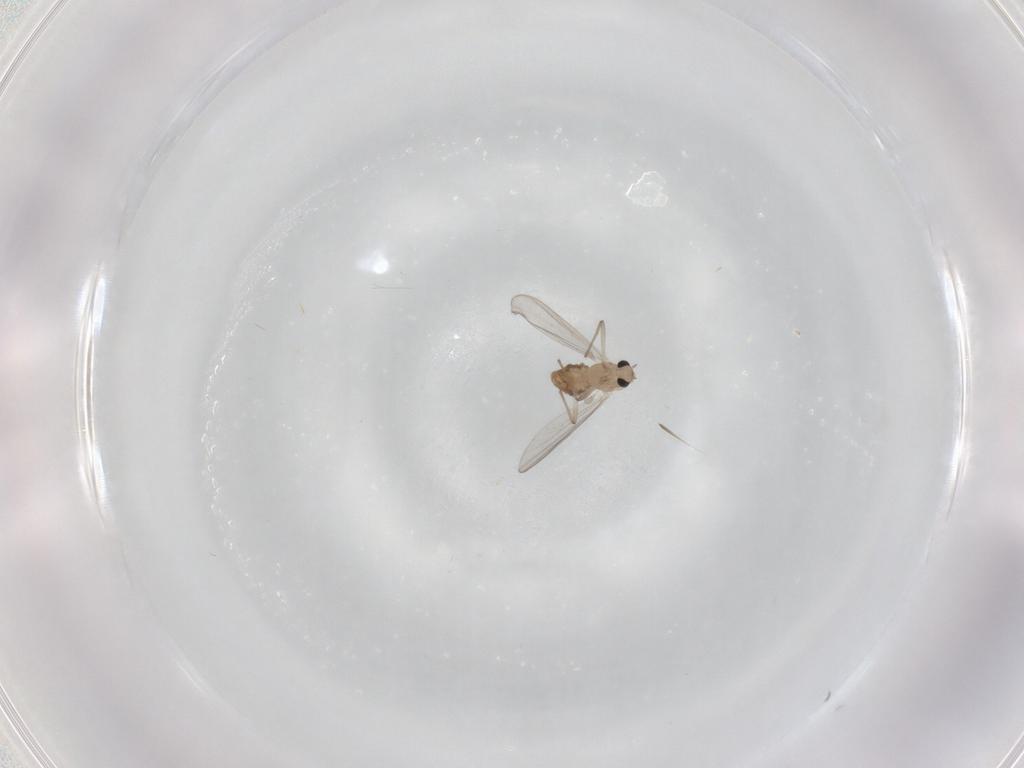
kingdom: Animalia
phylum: Arthropoda
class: Insecta
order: Diptera
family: Chironomidae
